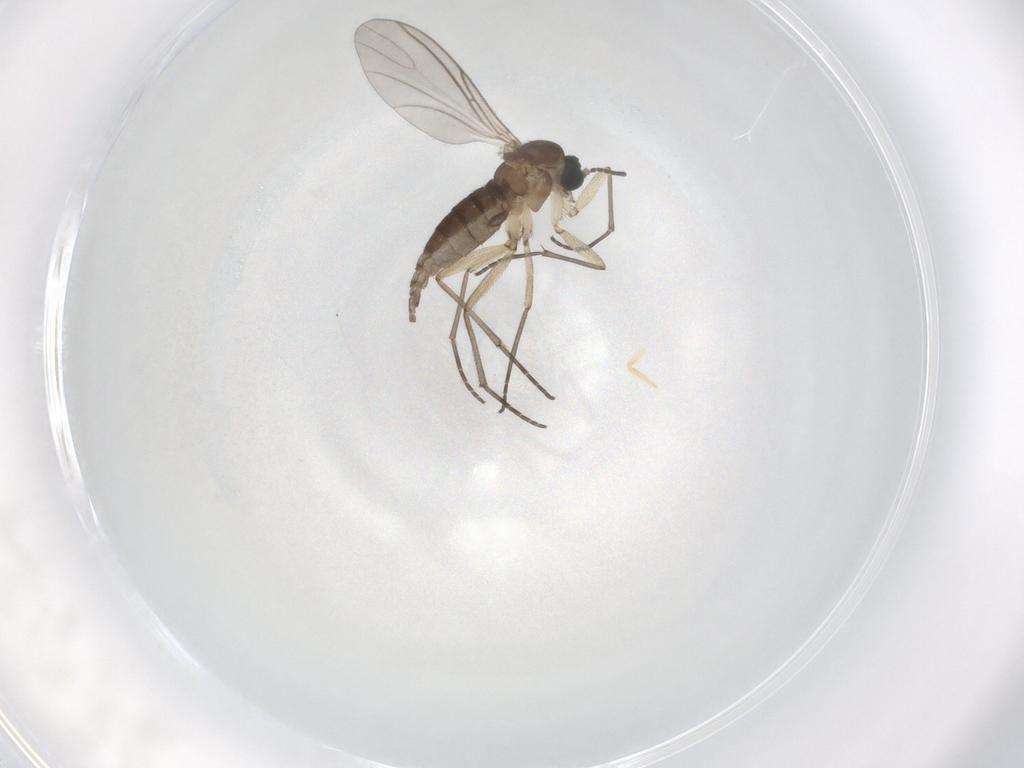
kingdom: Animalia
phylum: Arthropoda
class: Insecta
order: Diptera
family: Sciaridae
